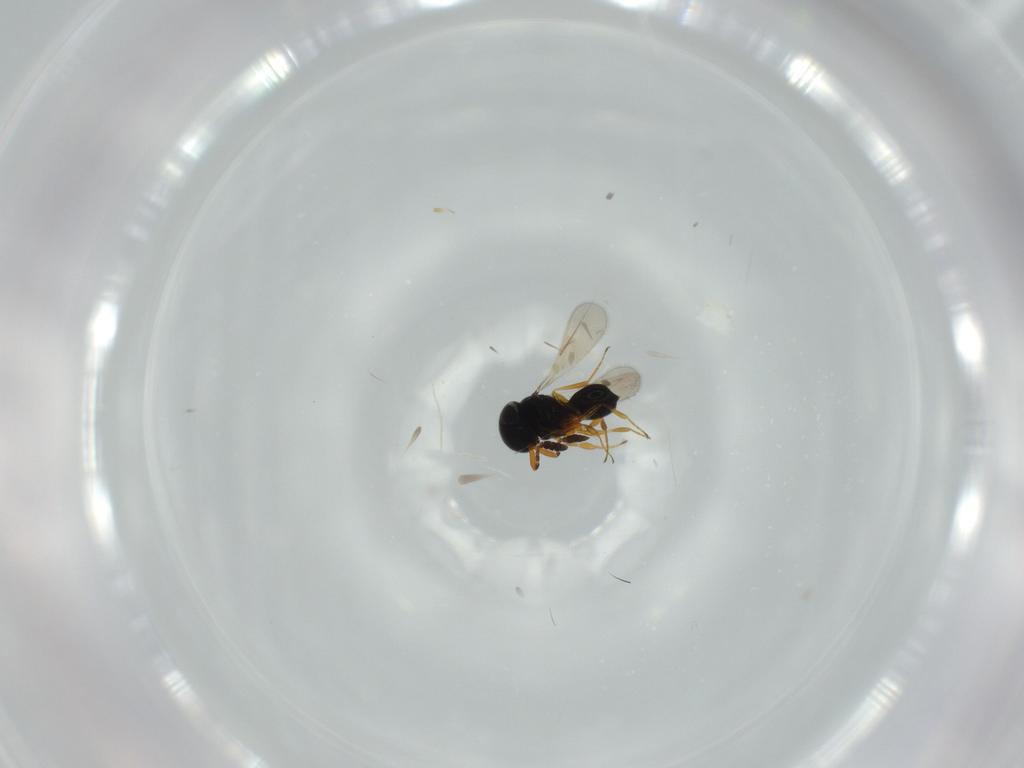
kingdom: Animalia
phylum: Arthropoda
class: Insecta
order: Hymenoptera
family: Scelionidae
